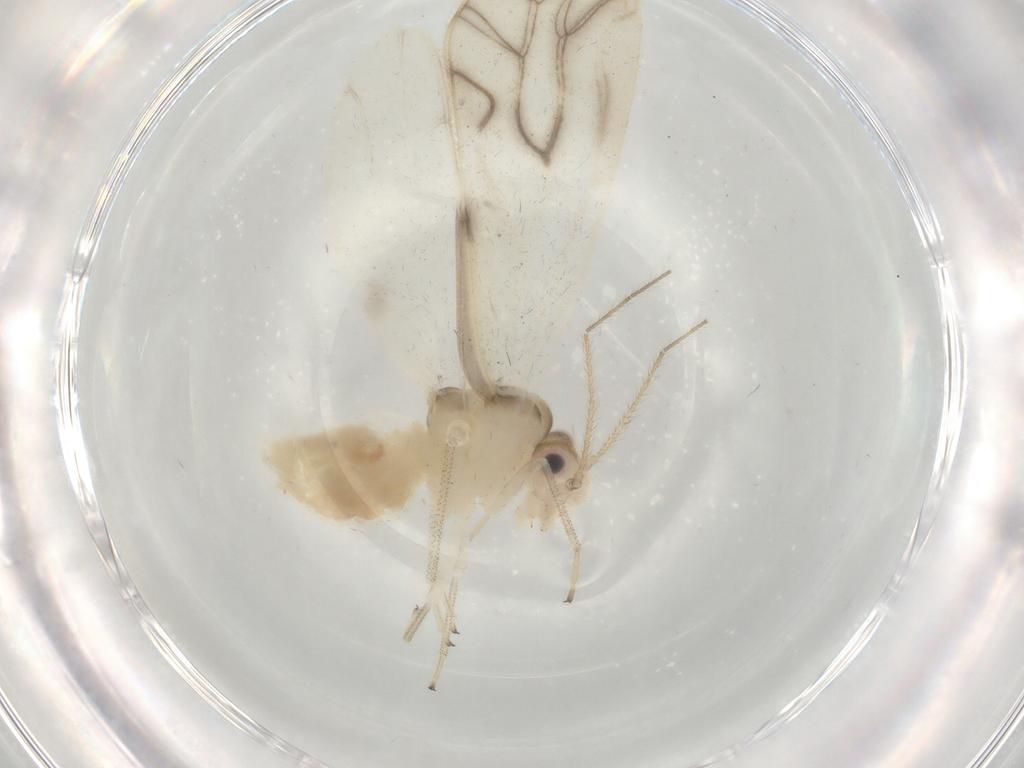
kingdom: Animalia
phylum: Arthropoda
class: Insecta
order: Psocodea
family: Caeciliusidae
